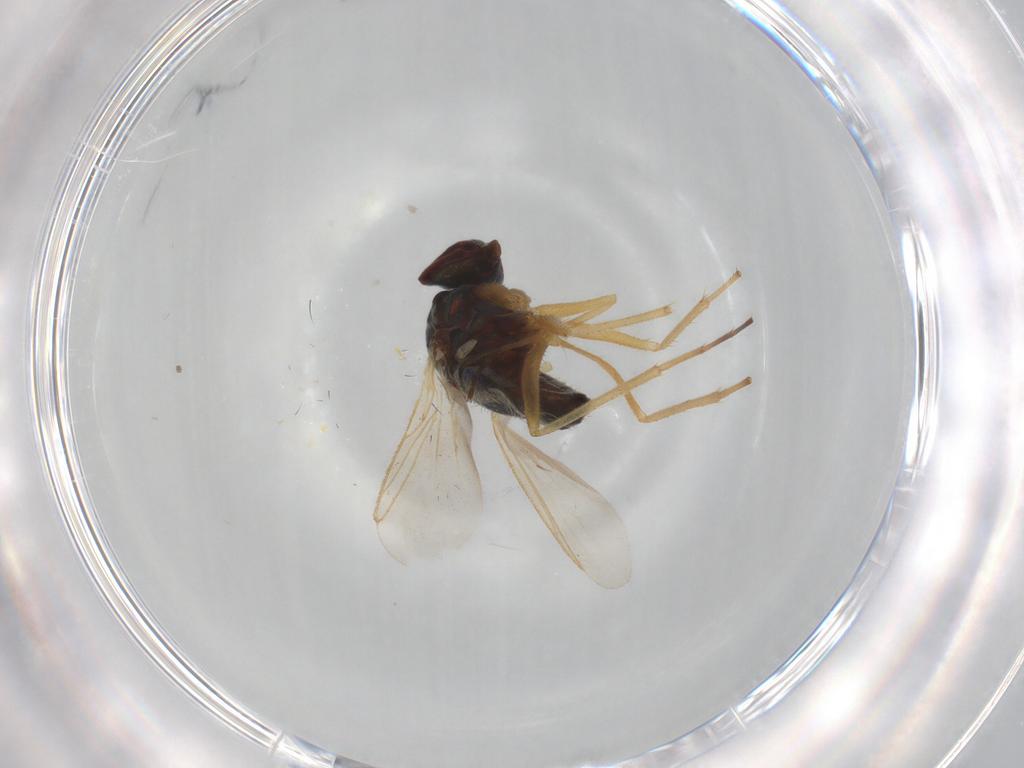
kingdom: Animalia
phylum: Arthropoda
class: Insecta
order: Diptera
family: Dolichopodidae
